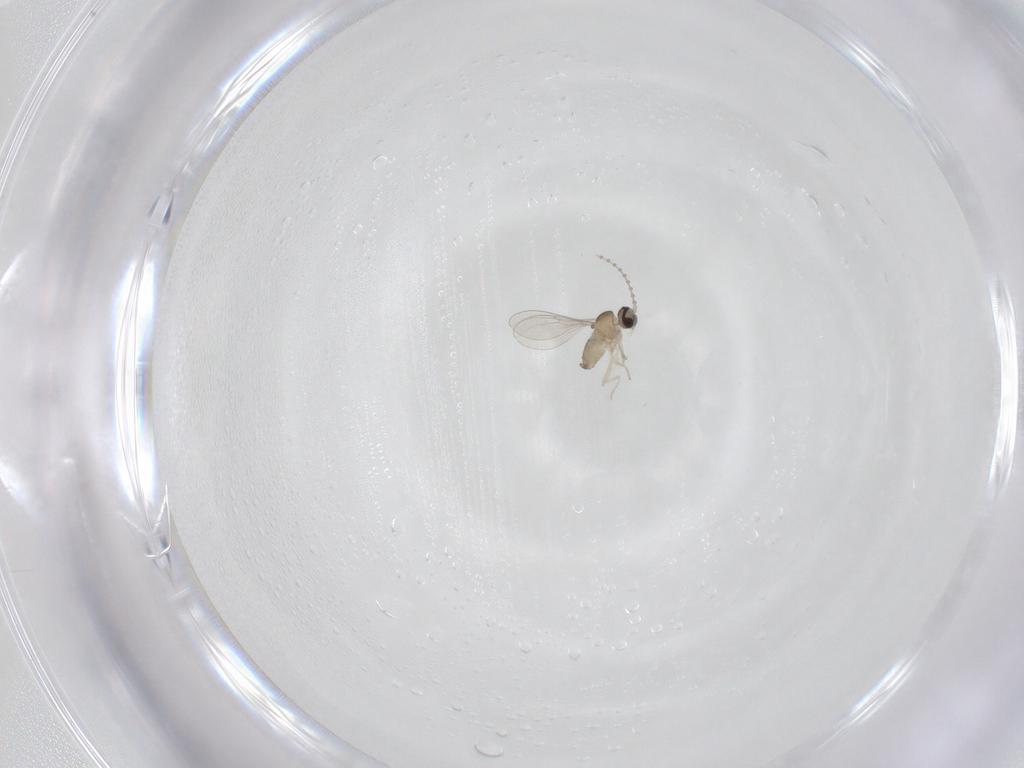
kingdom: Animalia
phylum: Arthropoda
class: Insecta
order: Diptera
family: Cecidomyiidae
